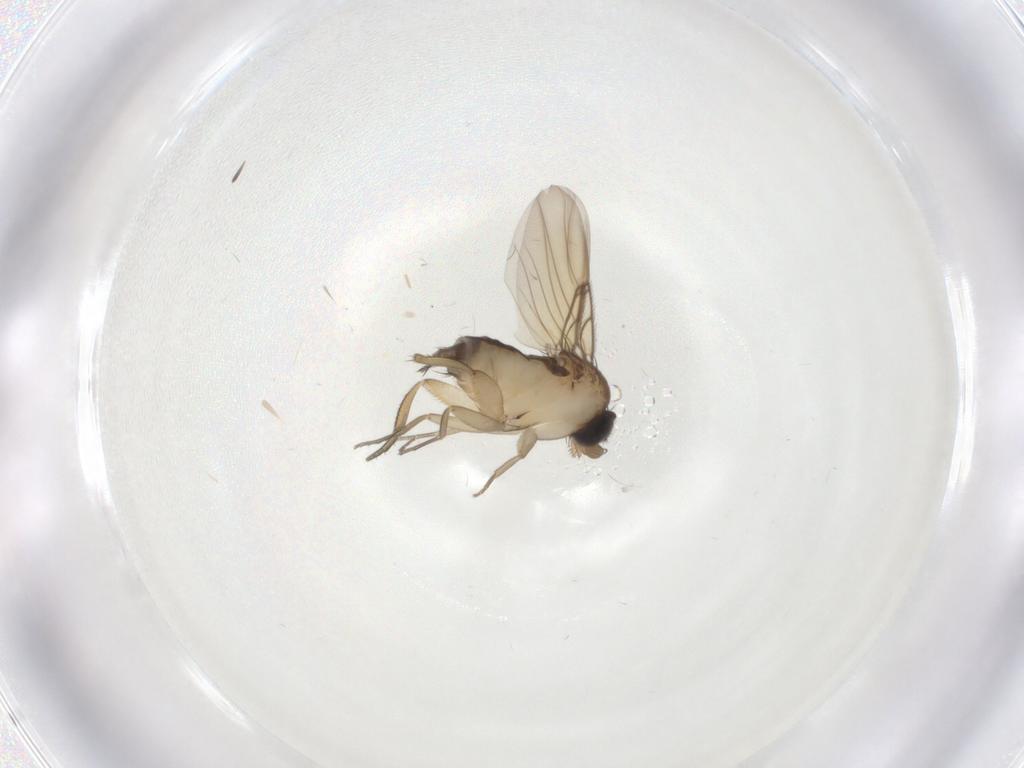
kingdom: Animalia
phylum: Arthropoda
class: Insecta
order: Diptera
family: Phoridae
